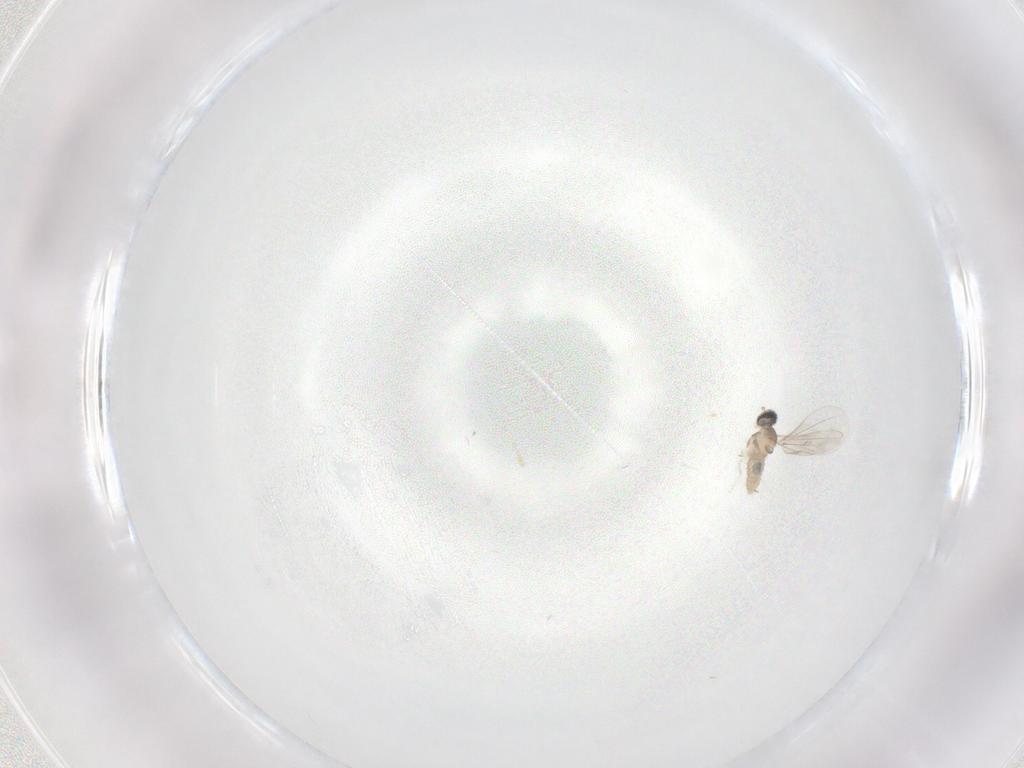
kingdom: Animalia
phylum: Arthropoda
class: Insecta
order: Diptera
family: Cecidomyiidae
